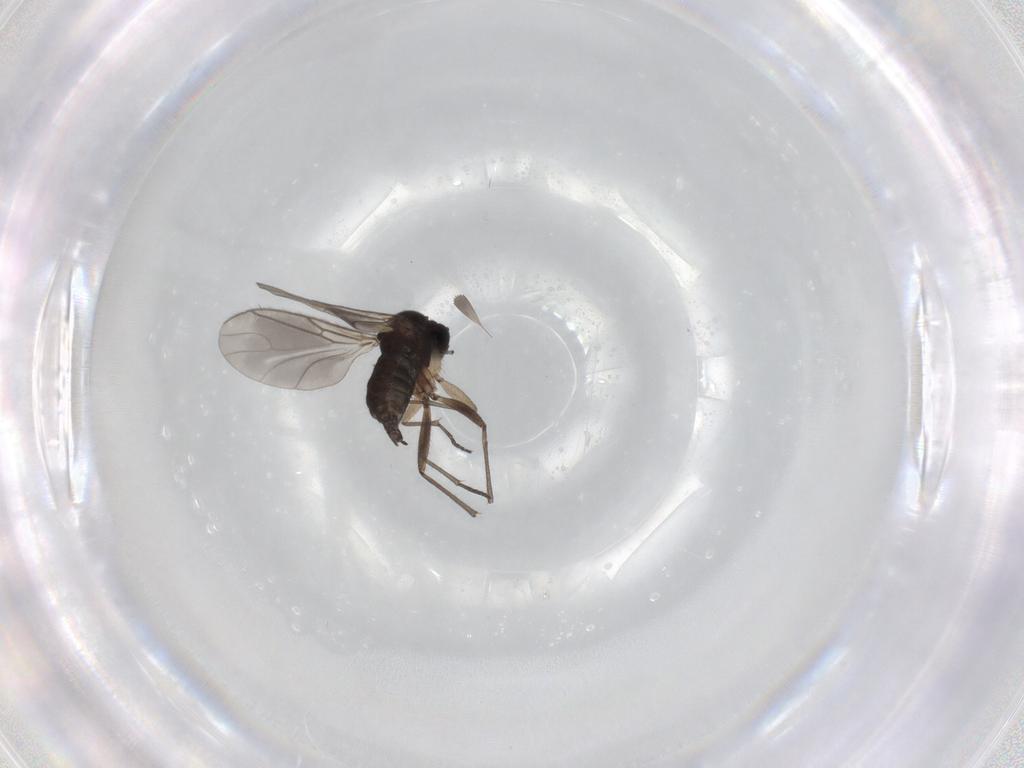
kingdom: Animalia
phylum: Arthropoda
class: Insecta
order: Diptera
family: Sciaridae
